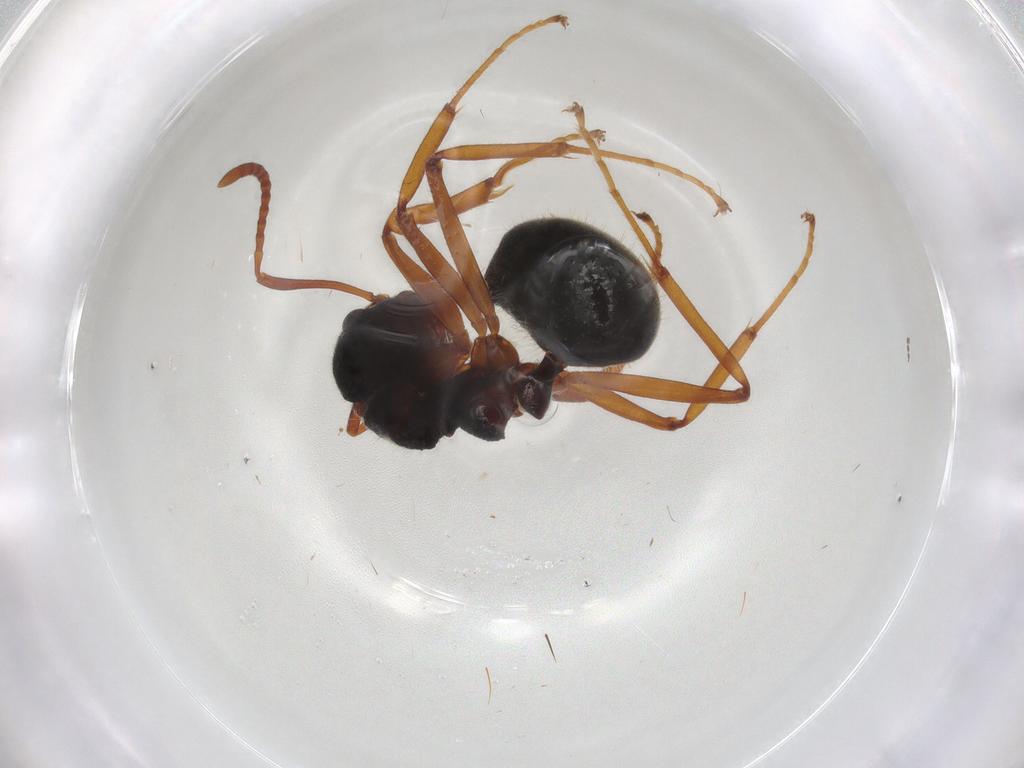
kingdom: Animalia
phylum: Arthropoda
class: Insecta
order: Hymenoptera
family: Formicidae
